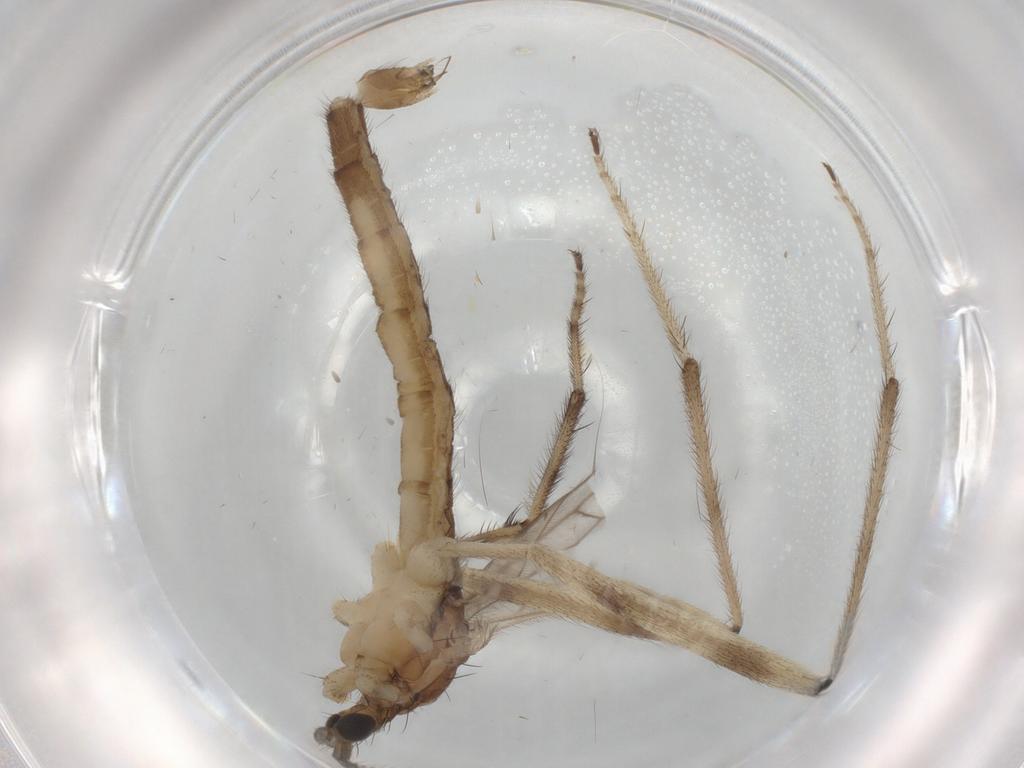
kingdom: Animalia
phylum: Arthropoda
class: Insecta
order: Diptera
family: Limoniidae
